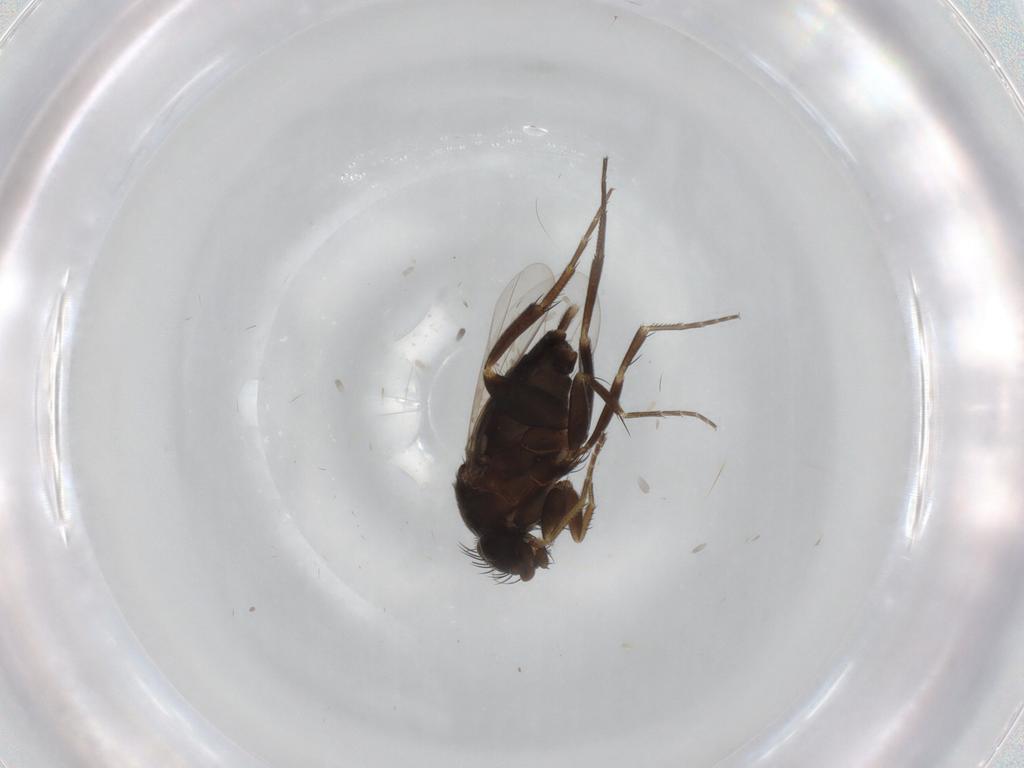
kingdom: Animalia
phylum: Arthropoda
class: Insecta
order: Diptera
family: Phoridae
